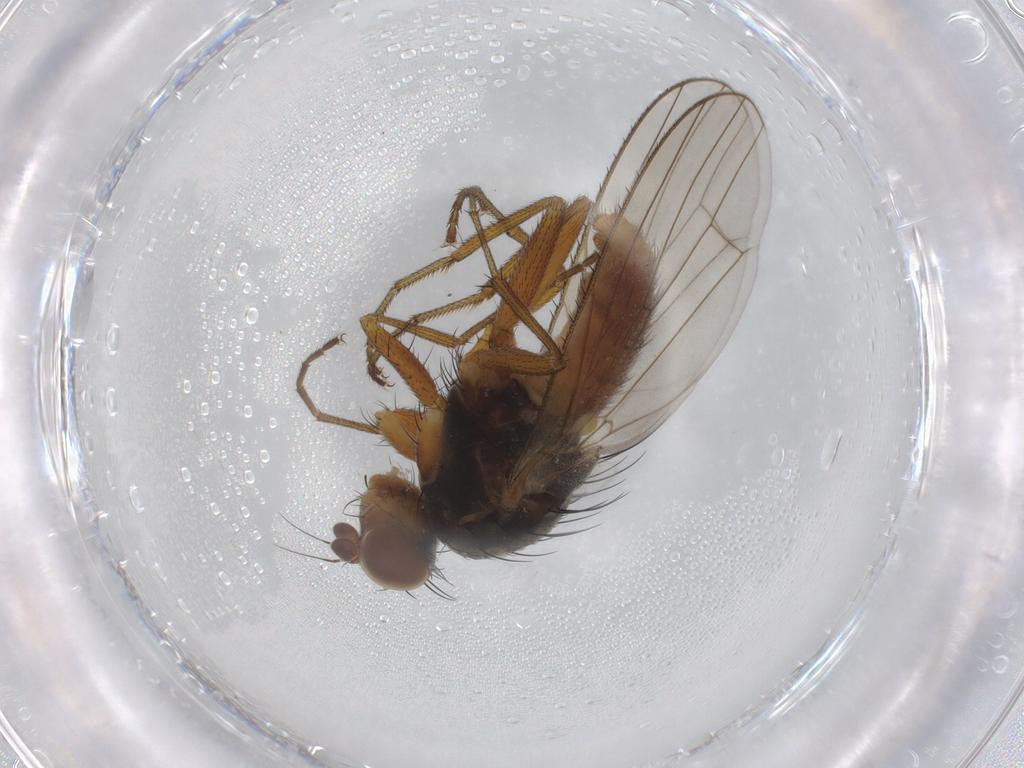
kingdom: Animalia
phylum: Arthropoda
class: Insecta
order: Diptera
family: Heleomyzidae
